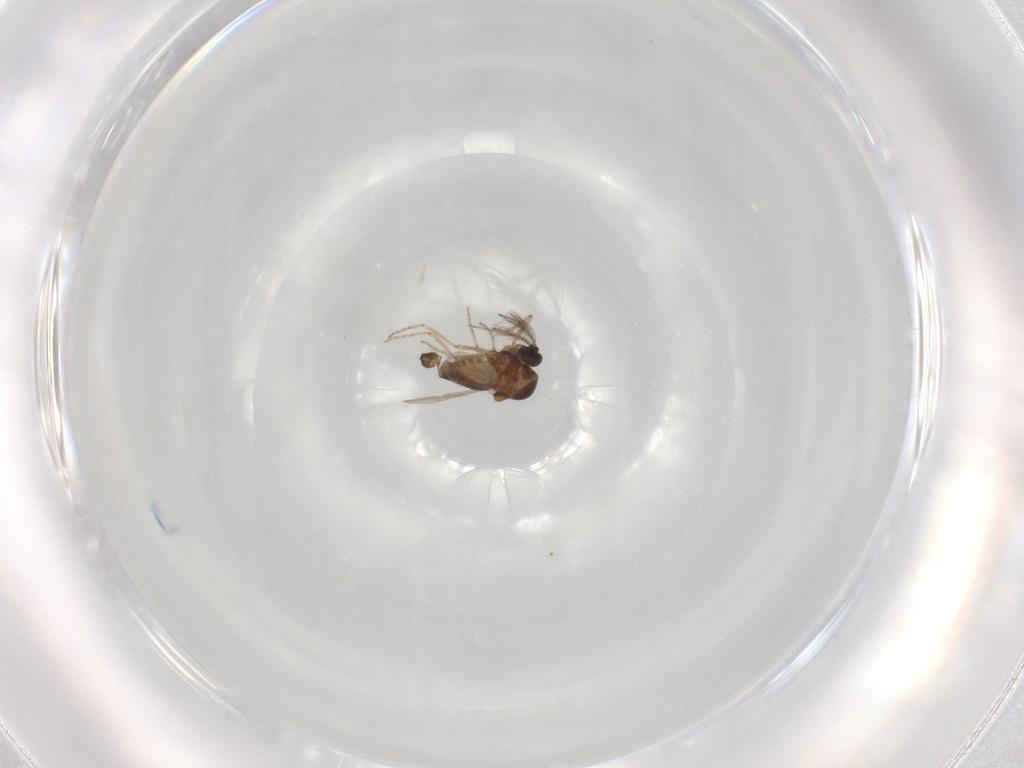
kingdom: Animalia
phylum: Arthropoda
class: Insecta
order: Diptera
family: Ceratopogonidae
